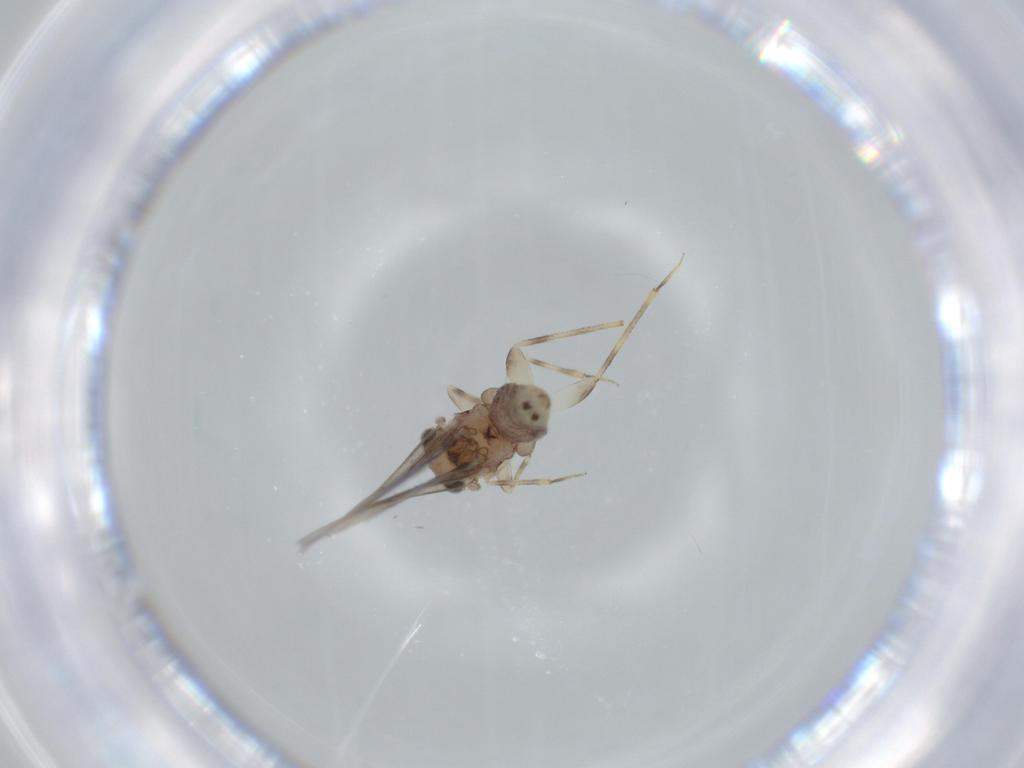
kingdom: Animalia
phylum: Arthropoda
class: Insecta
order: Psocodea
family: Lepidopsocidae
